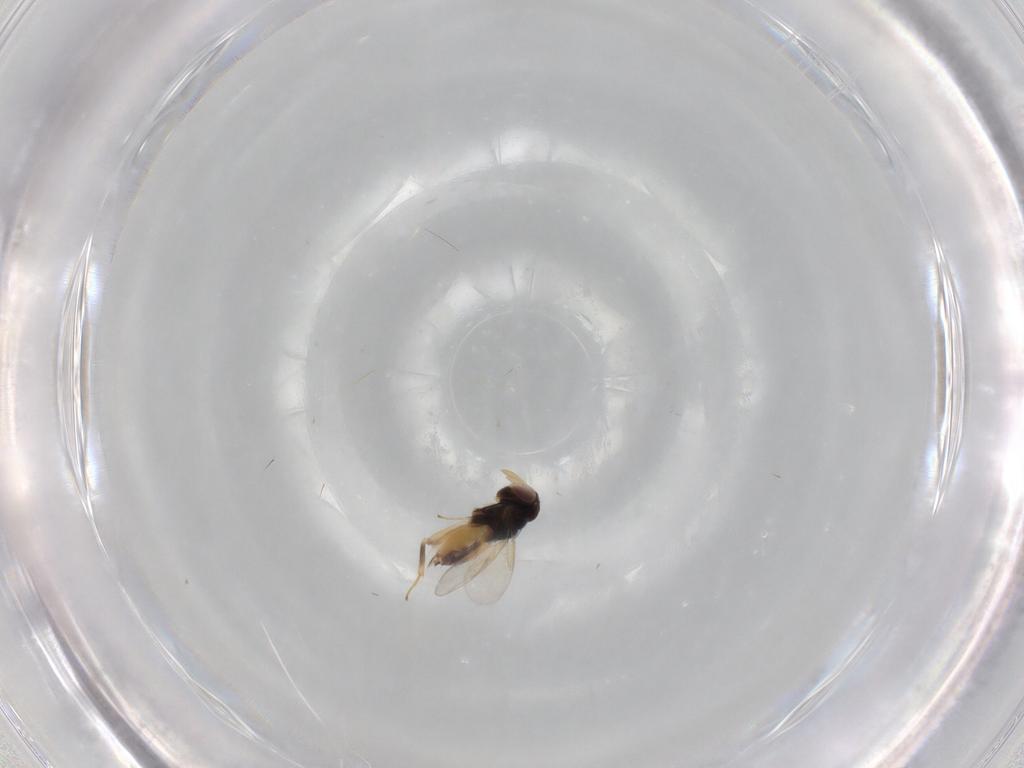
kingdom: Animalia
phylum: Arthropoda
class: Insecta
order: Hymenoptera
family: Aphelinidae
